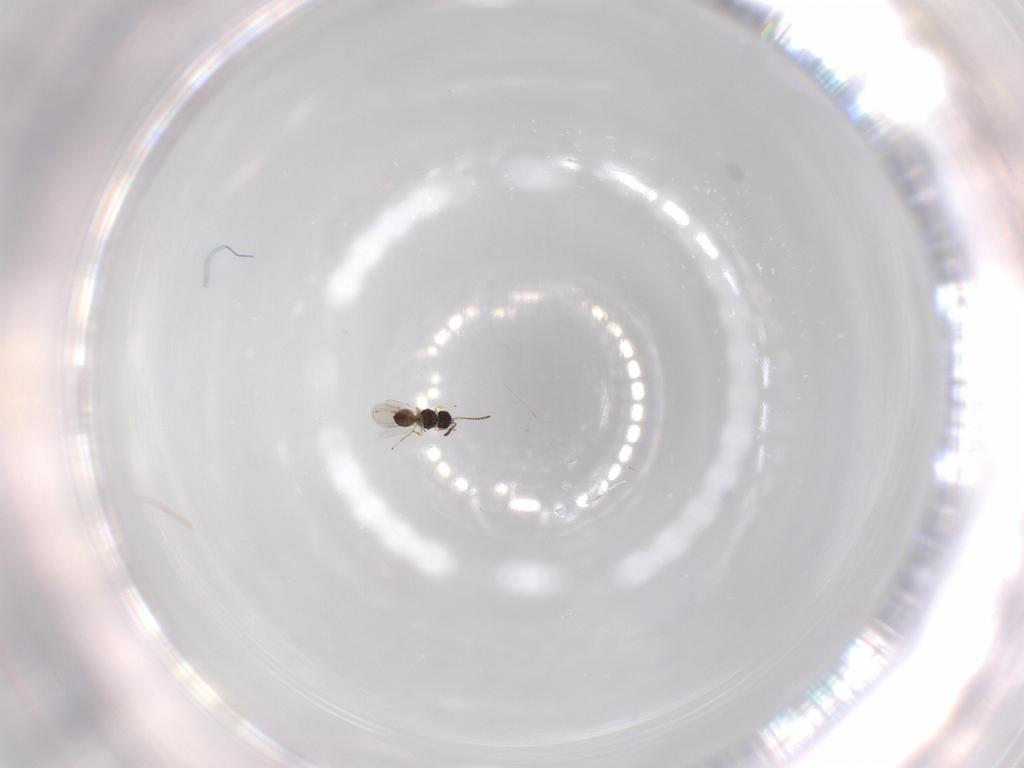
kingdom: Animalia
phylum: Arthropoda
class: Insecta
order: Hymenoptera
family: Scelionidae
